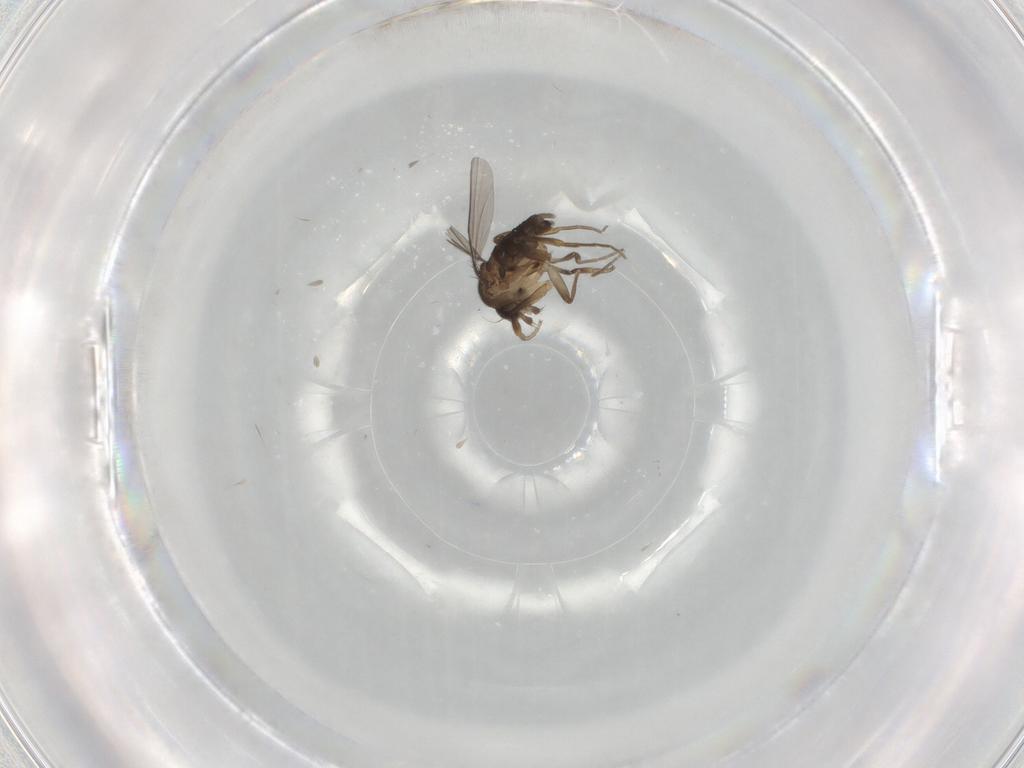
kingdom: Animalia
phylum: Arthropoda
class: Insecta
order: Diptera
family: Phoridae
